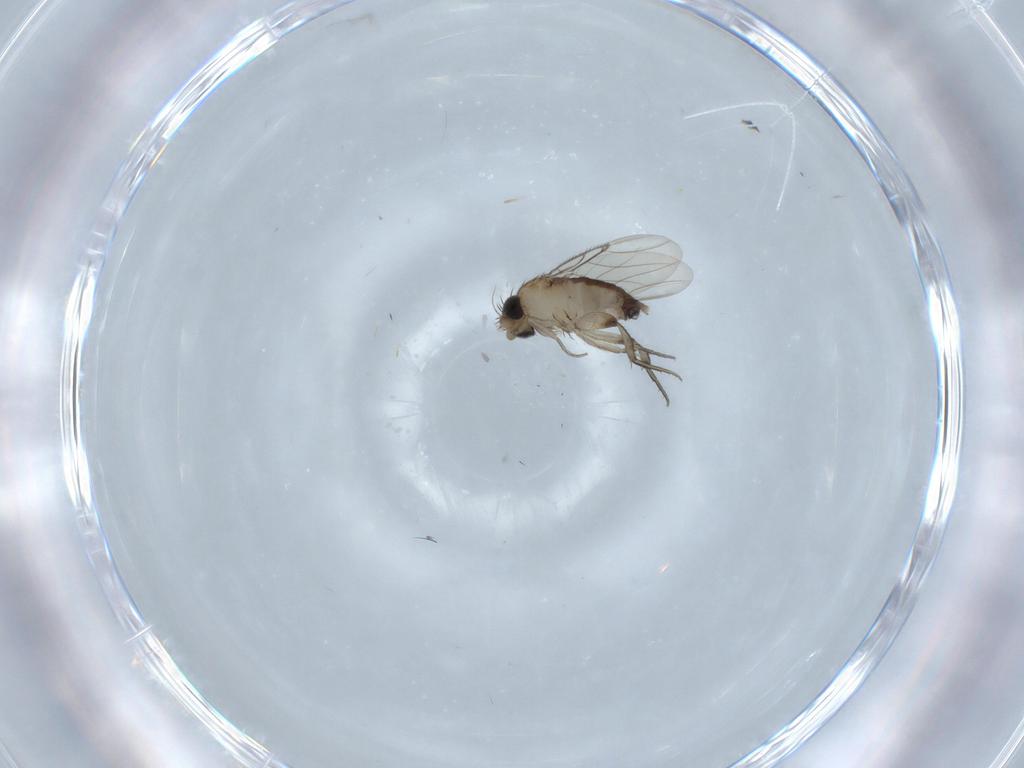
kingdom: Animalia
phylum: Arthropoda
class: Insecta
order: Diptera
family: Phoridae
